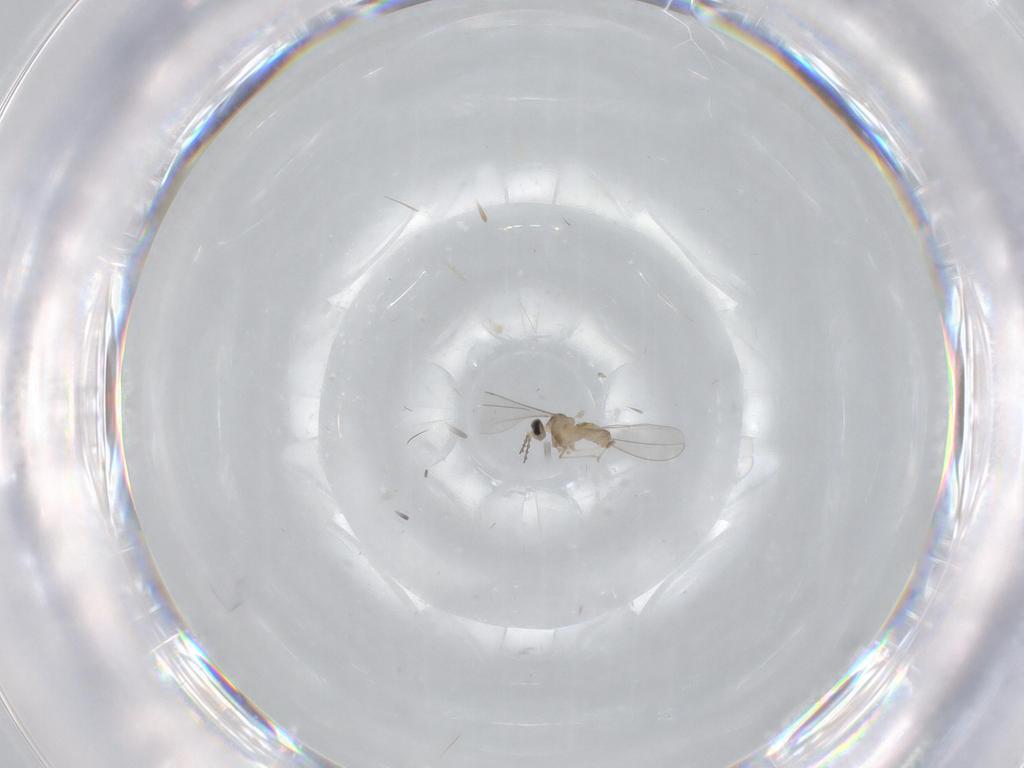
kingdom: Animalia
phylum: Arthropoda
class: Insecta
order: Diptera
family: Cecidomyiidae
